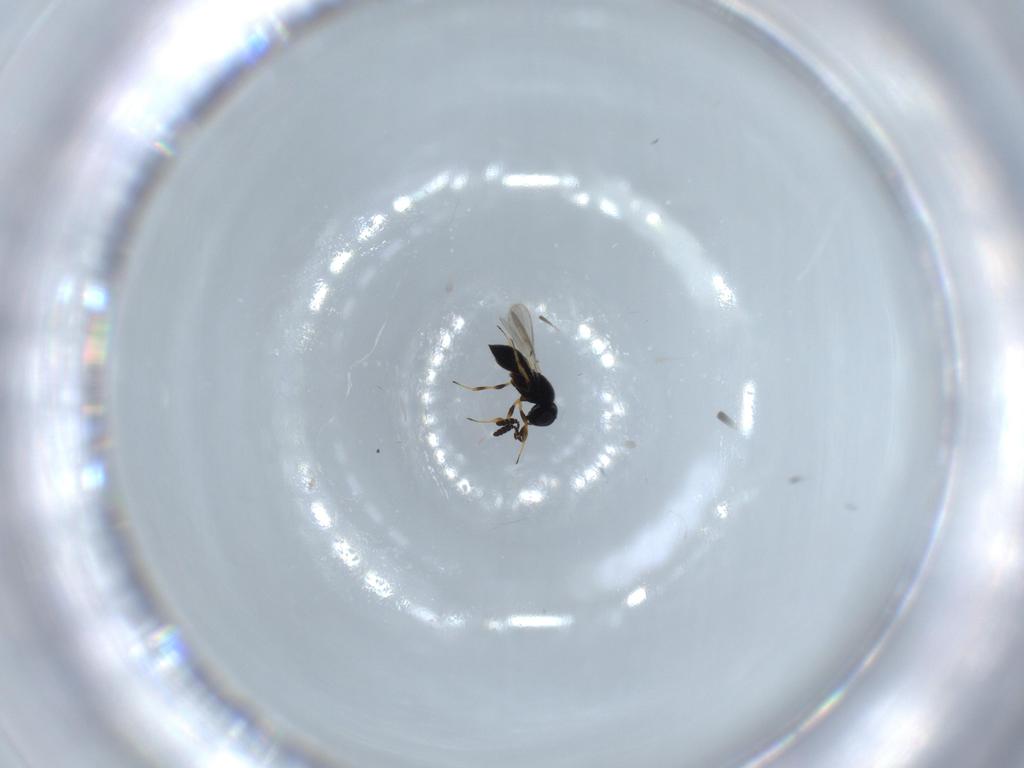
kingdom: Animalia
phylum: Arthropoda
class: Insecta
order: Hymenoptera
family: Scelionidae
